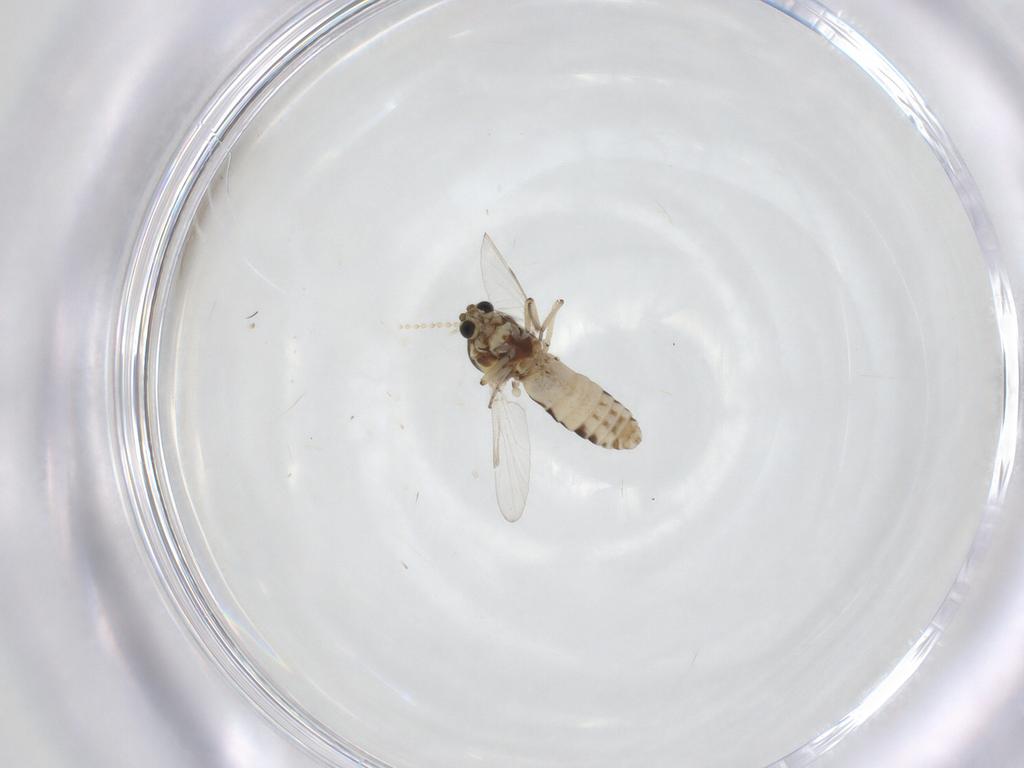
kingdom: Animalia
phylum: Arthropoda
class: Insecta
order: Diptera
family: Ceratopogonidae
